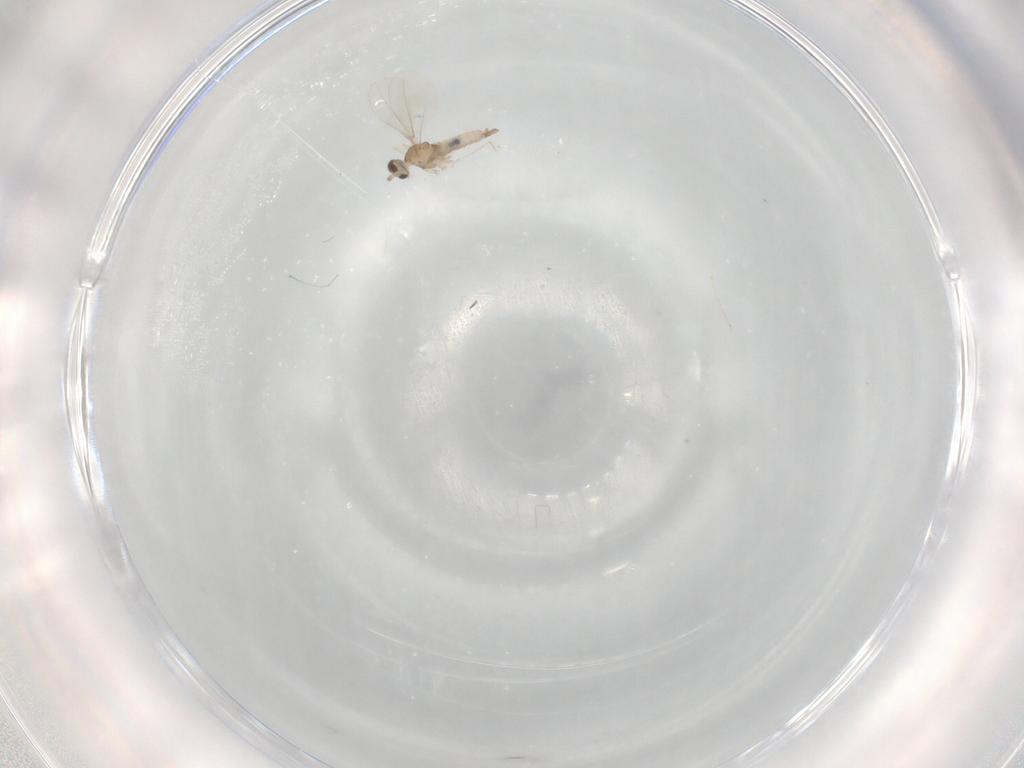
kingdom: Animalia
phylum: Arthropoda
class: Insecta
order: Diptera
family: Cecidomyiidae
